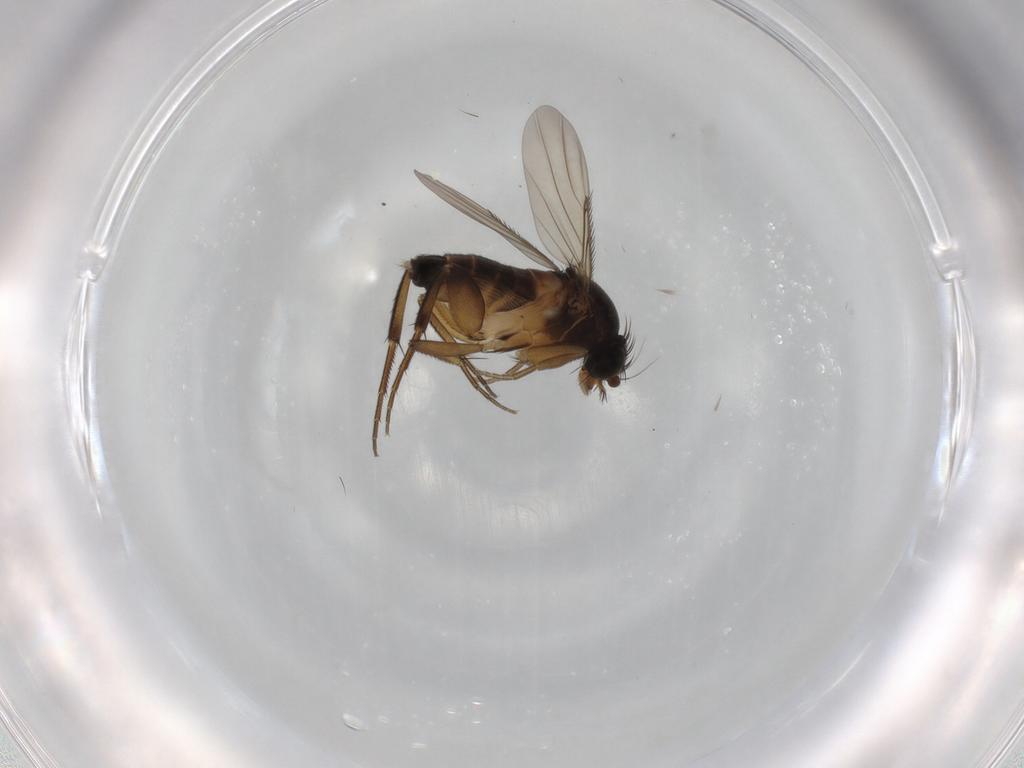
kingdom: Animalia
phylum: Arthropoda
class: Insecta
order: Diptera
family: Phoridae
